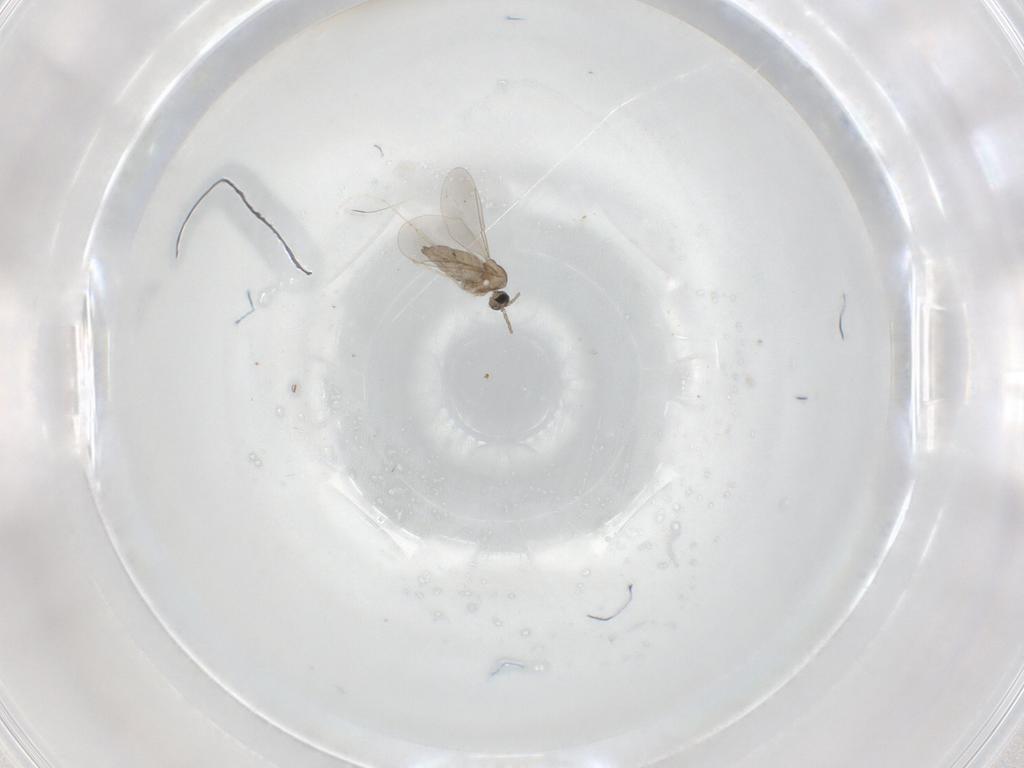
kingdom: Animalia
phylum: Arthropoda
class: Insecta
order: Diptera
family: Cecidomyiidae
